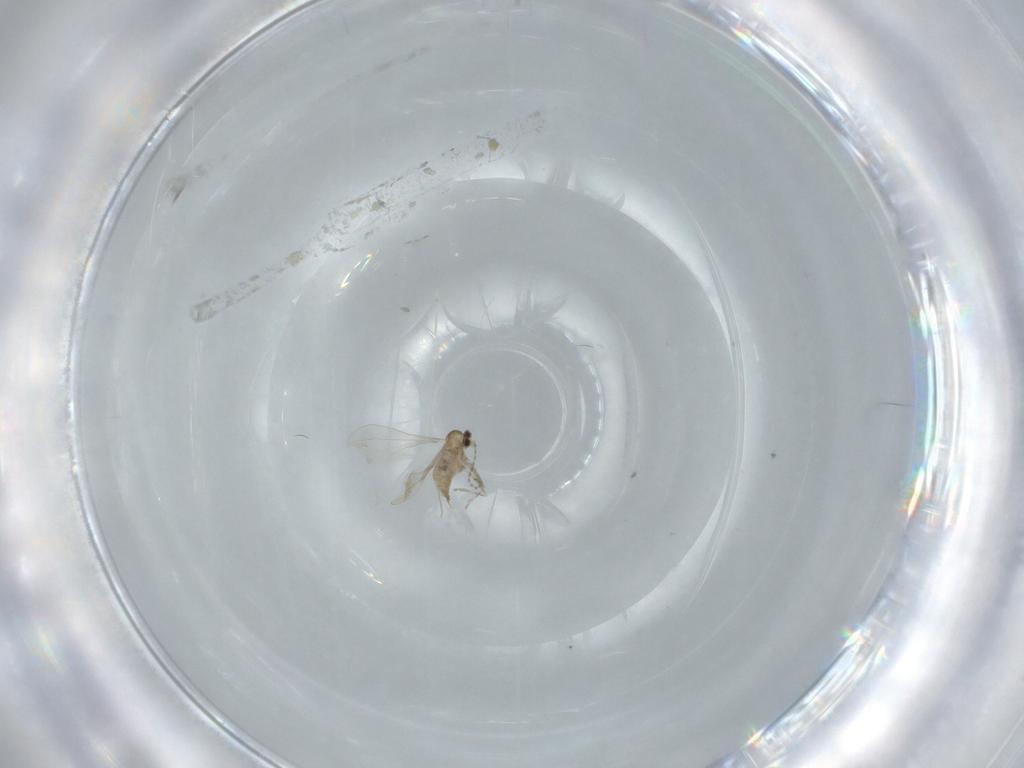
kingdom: Animalia
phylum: Arthropoda
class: Insecta
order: Diptera
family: Cecidomyiidae
